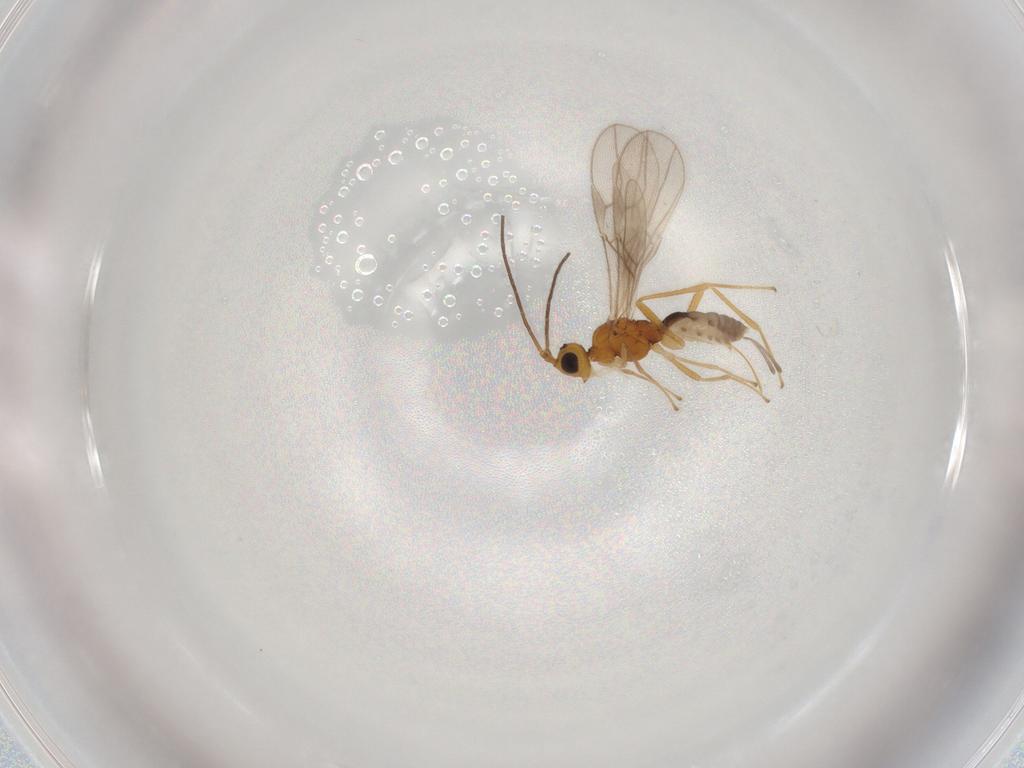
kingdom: Animalia
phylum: Arthropoda
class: Insecta
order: Hymenoptera
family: Braconidae
